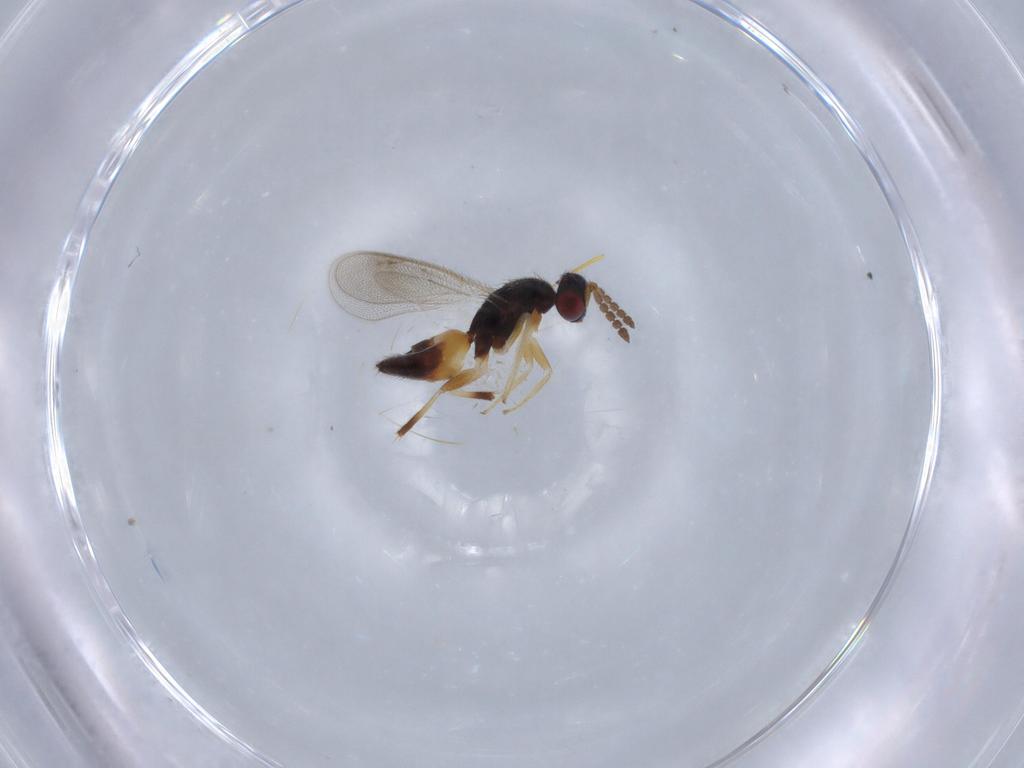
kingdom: Animalia
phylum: Arthropoda
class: Insecta
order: Hymenoptera
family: Eulophidae
